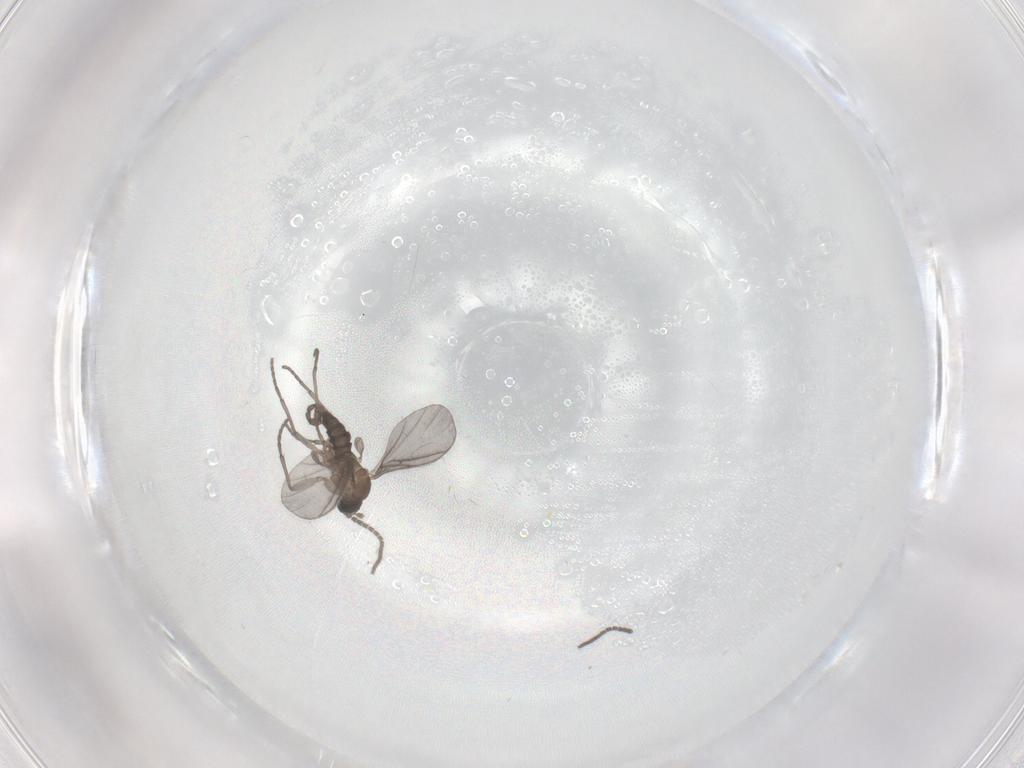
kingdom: Animalia
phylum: Arthropoda
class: Insecta
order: Diptera
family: Sciaridae
